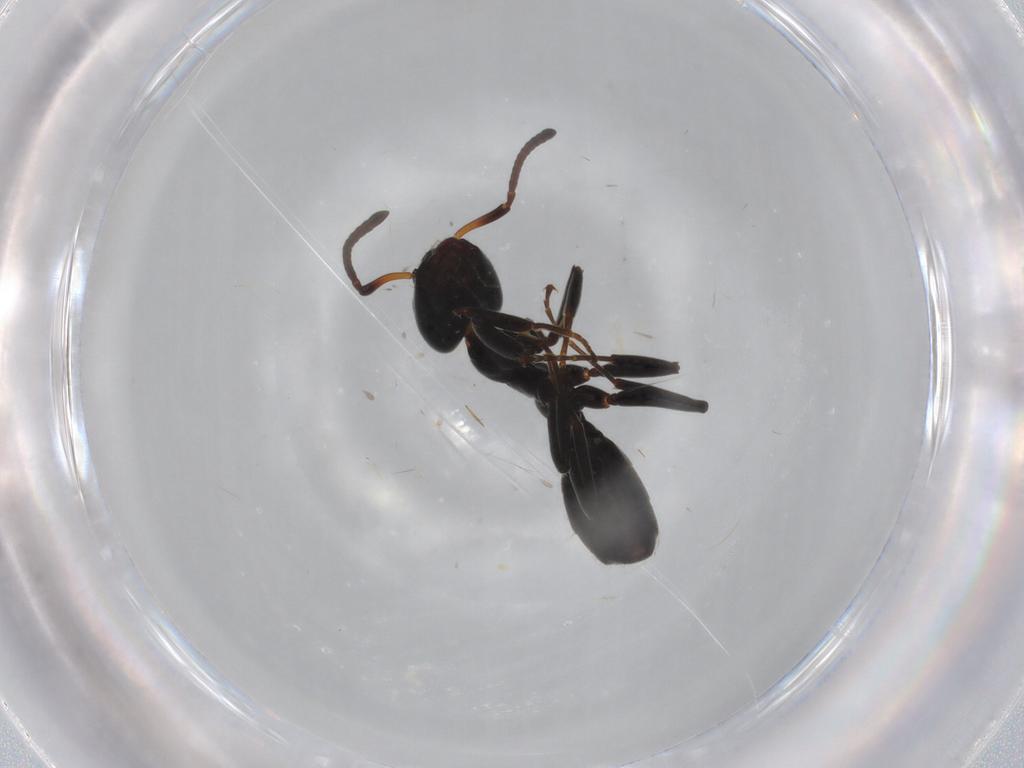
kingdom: Animalia
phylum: Arthropoda
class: Insecta
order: Hymenoptera
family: Formicidae
